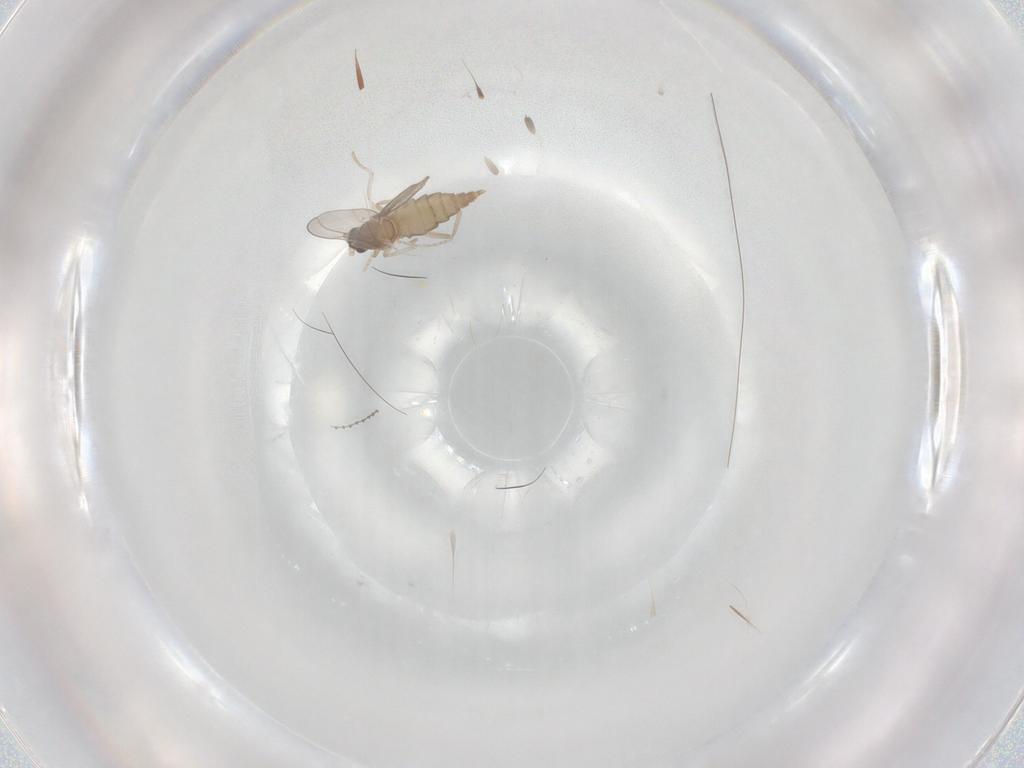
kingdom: Animalia
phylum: Arthropoda
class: Insecta
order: Diptera
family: Cecidomyiidae
